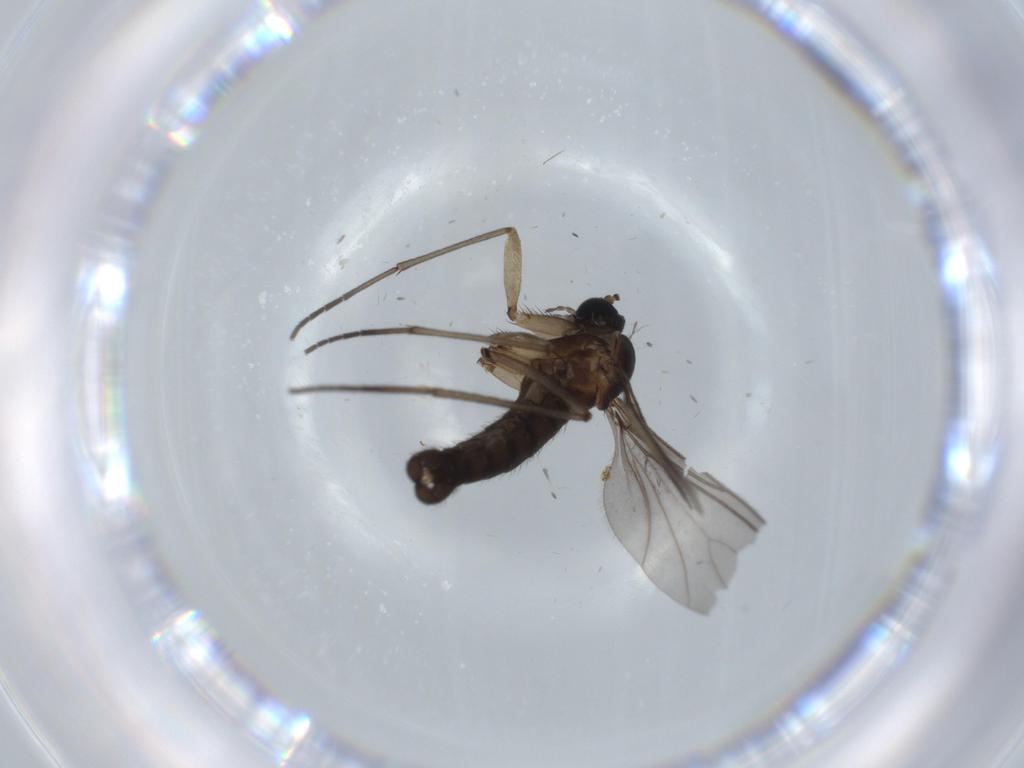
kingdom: Animalia
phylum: Arthropoda
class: Insecta
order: Diptera
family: Sciaridae
